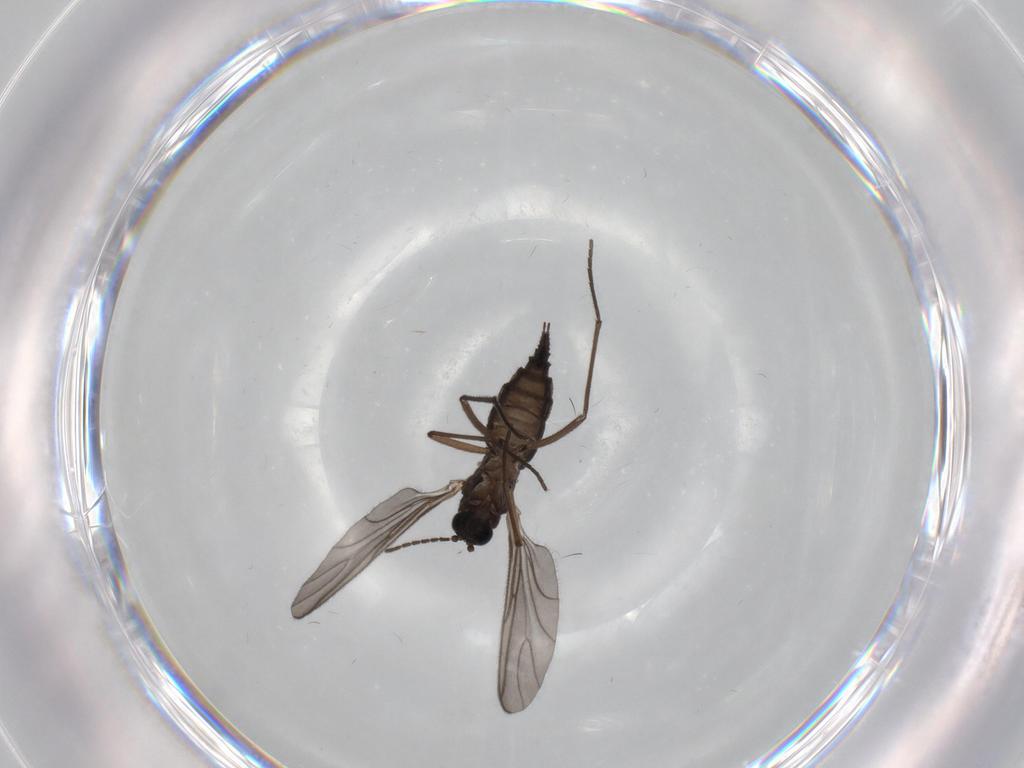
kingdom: Animalia
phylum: Arthropoda
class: Insecta
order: Diptera
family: Sciaridae
